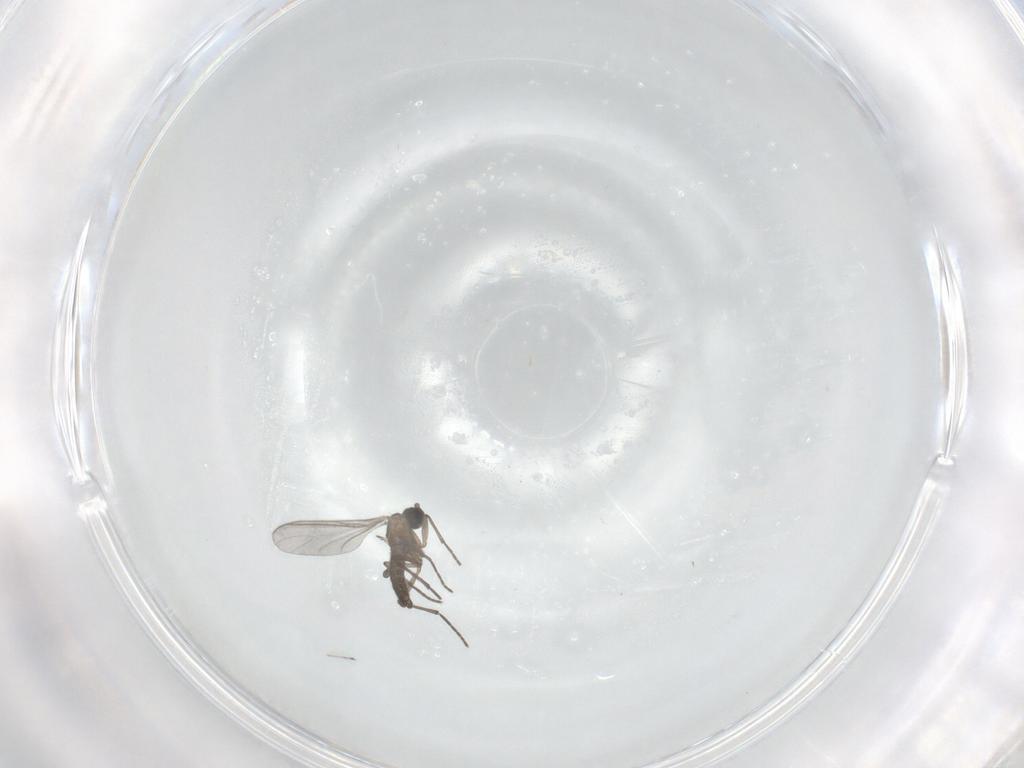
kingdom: Animalia
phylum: Arthropoda
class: Insecta
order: Diptera
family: Sciaridae
